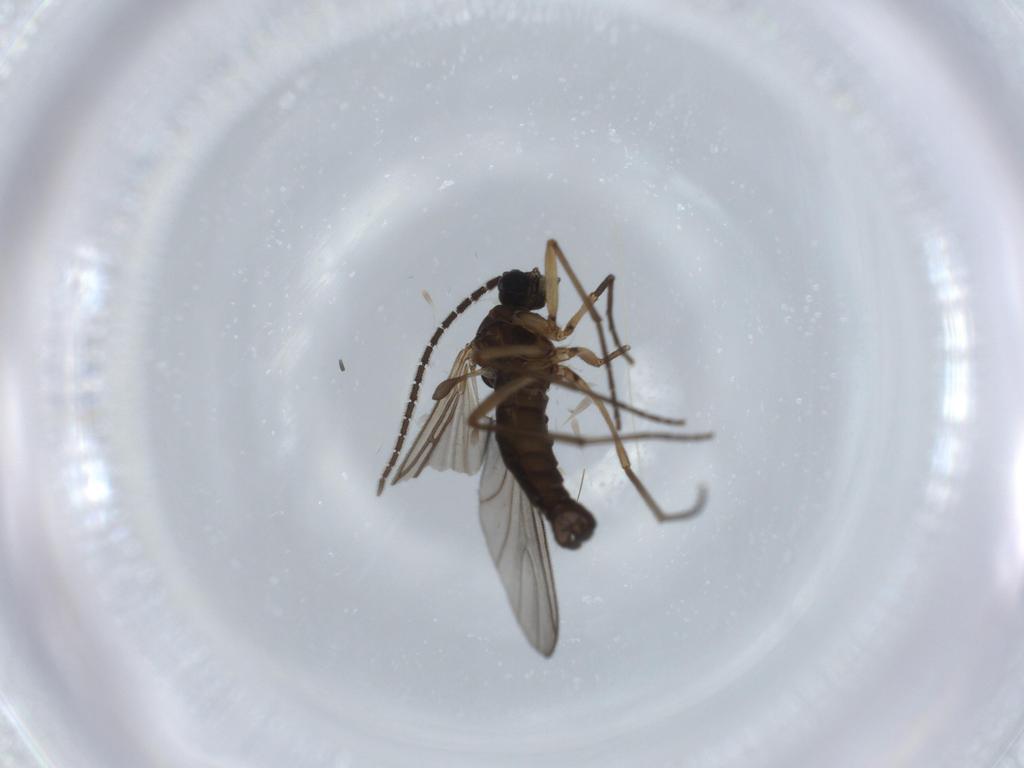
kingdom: Animalia
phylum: Arthropoda
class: Insecta
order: Diptera
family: Sciaridae
